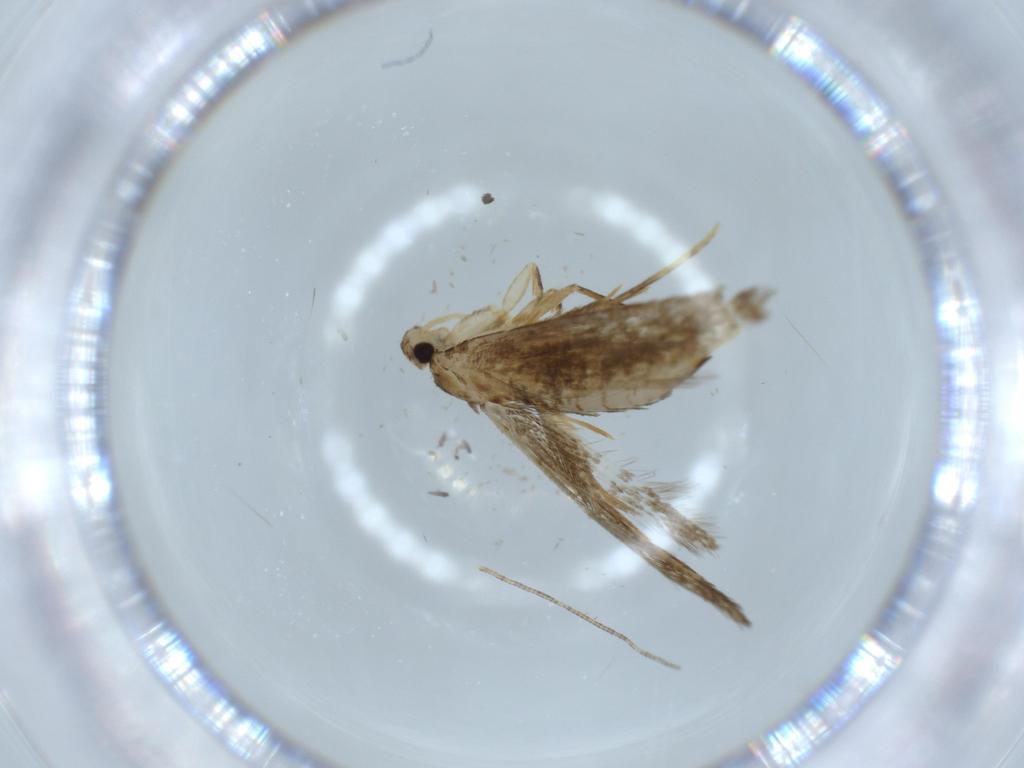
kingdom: Animalia
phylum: Arthropoda
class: Insecta
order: Lepidoptera
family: Tineidae
